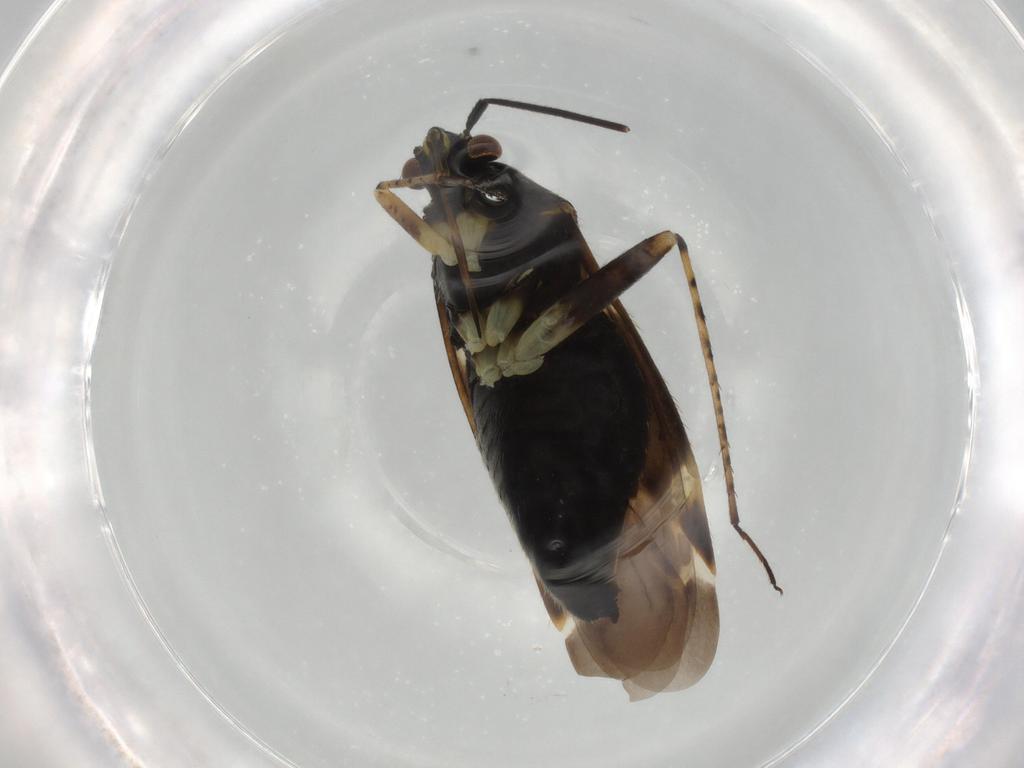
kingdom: Animalia
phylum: Arthropoda
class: Insecta
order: Hemiptera
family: Miridae
